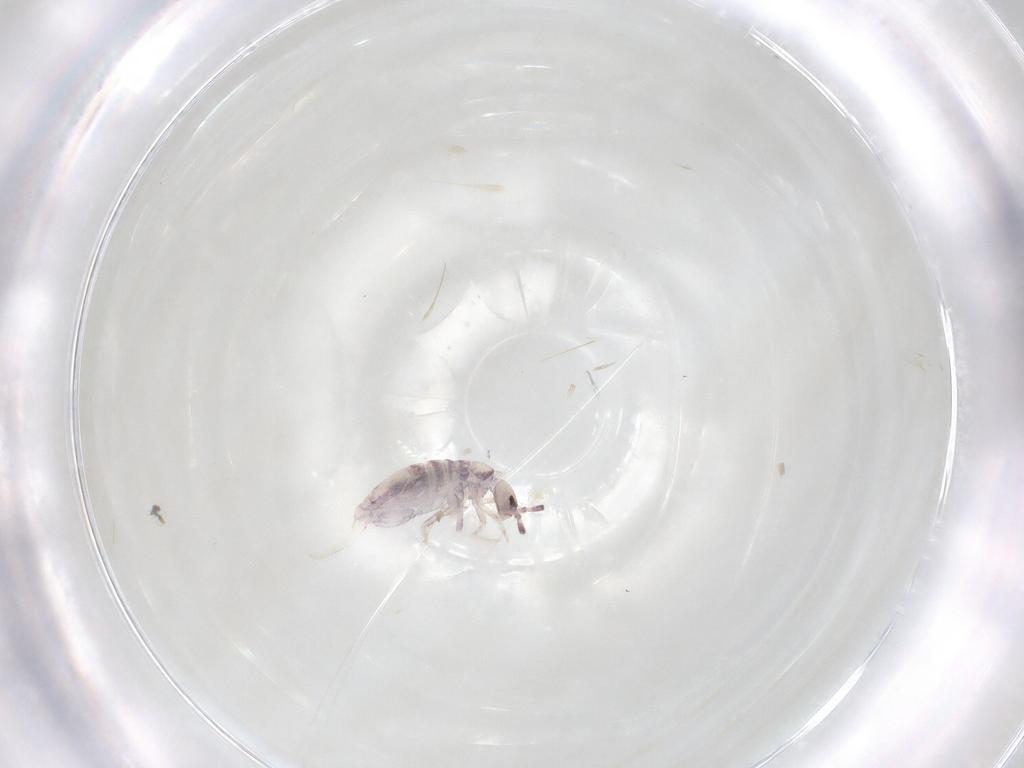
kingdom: Animalia
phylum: Arthropoda
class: Collembola
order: Poduromorpha
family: Hypogastruridae
